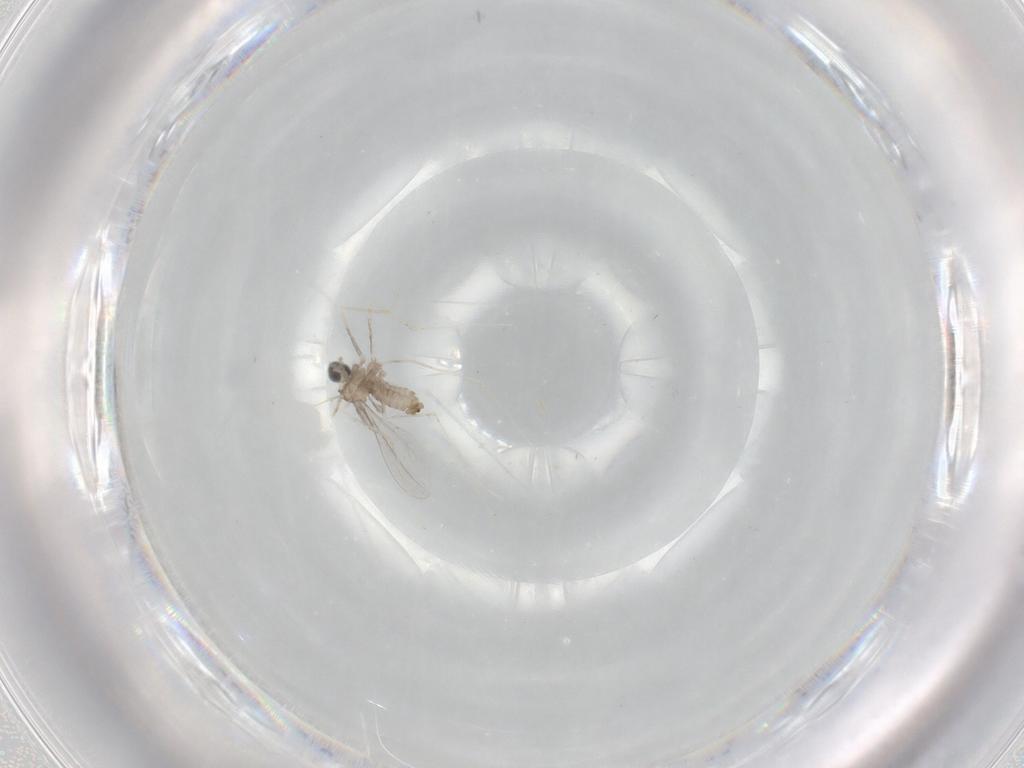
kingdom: Animalia
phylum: Arthropoda
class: Insecta
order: Diptera
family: Cecidomyiidae
